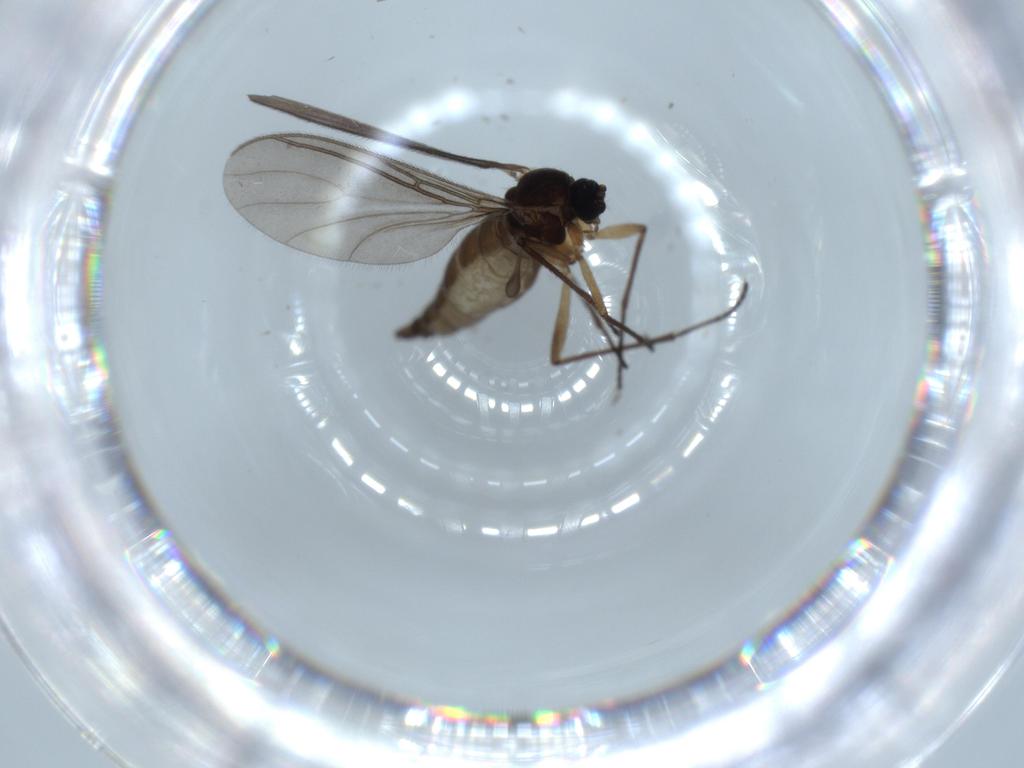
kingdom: Animalia
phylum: Arthropoda
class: Insecta
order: Diptera
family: Sciaridae
